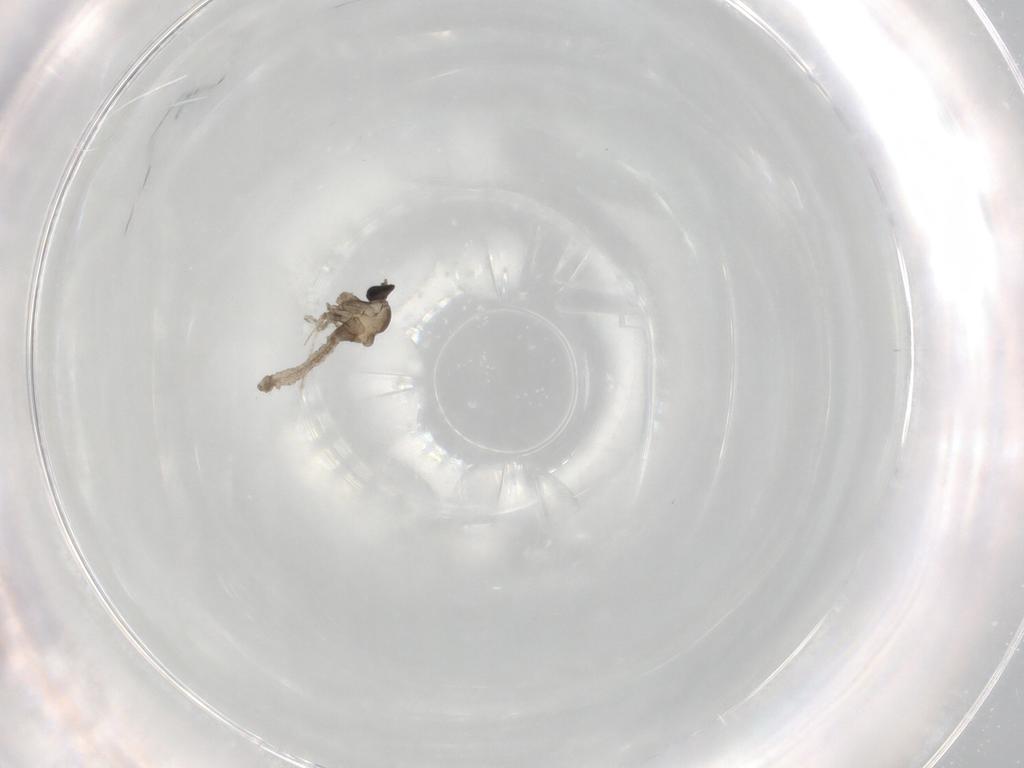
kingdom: Animalia
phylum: Arthropoda
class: Insecta
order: Diptera
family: Cecidomyiidae
